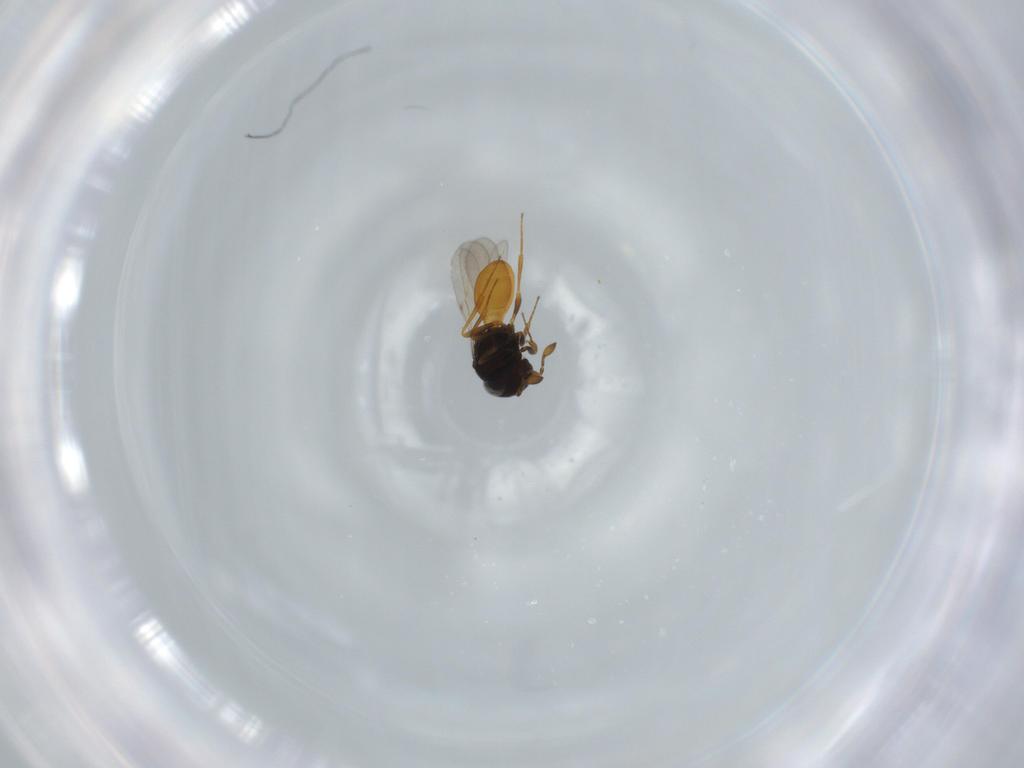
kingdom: Animalia
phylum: Arthropoda
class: Insecta
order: Hymenoptera
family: Scelionidae
